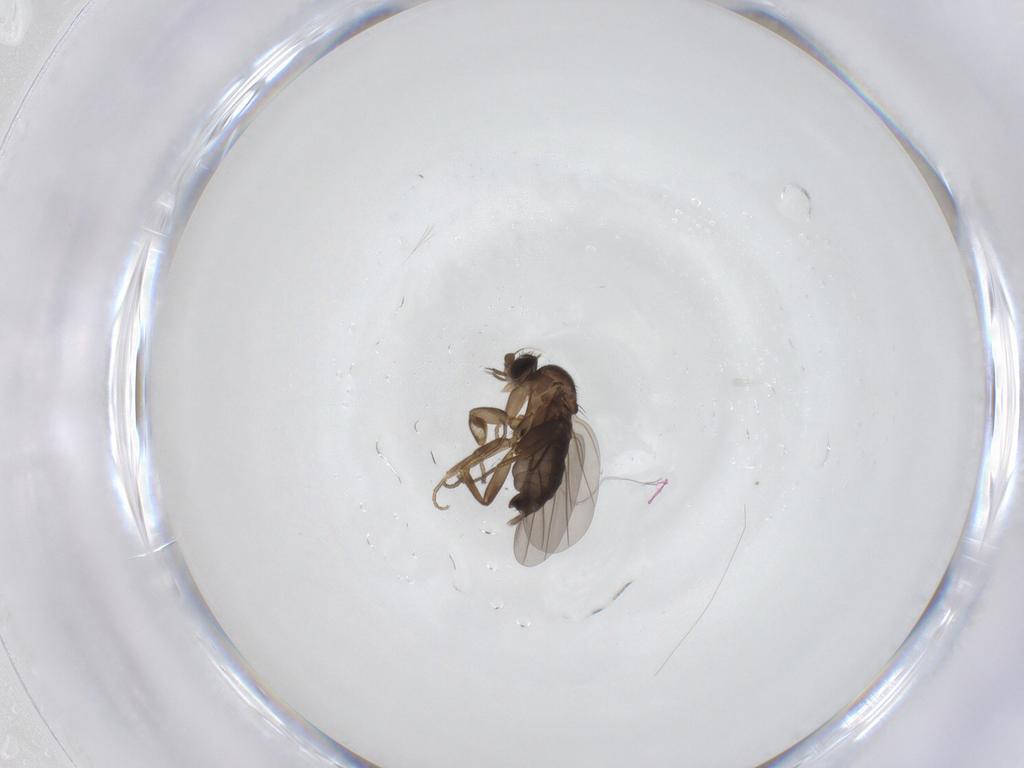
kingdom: Animalia
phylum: Arthropoda
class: Insecta
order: Diptera
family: Phoridae
